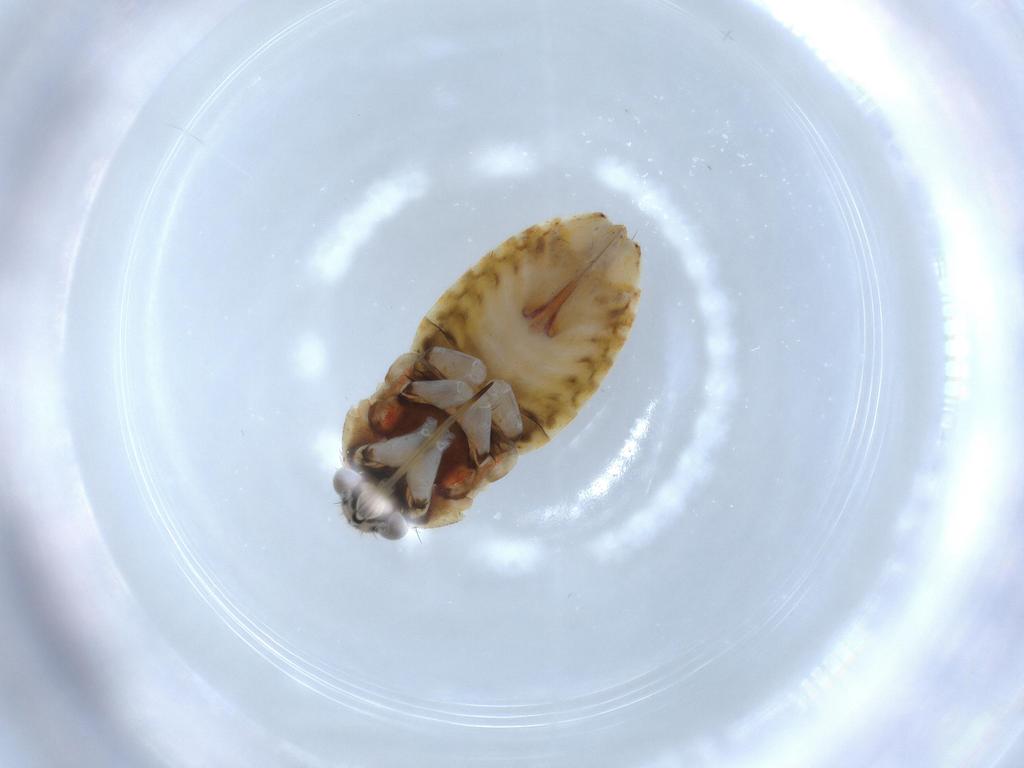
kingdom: Animalia
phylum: Arthropoda
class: Insecta
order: Hemiptera
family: Miridae
